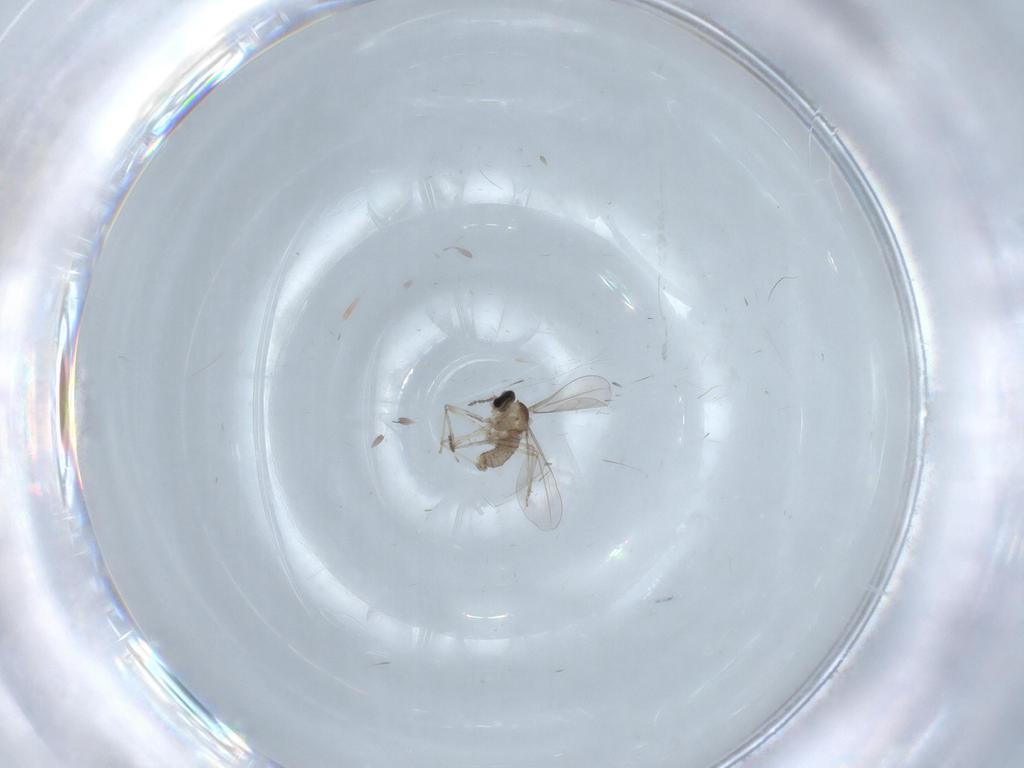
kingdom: Animalia
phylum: Arthropoda
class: Insecta
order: Diptera
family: Cecidomyiidae
